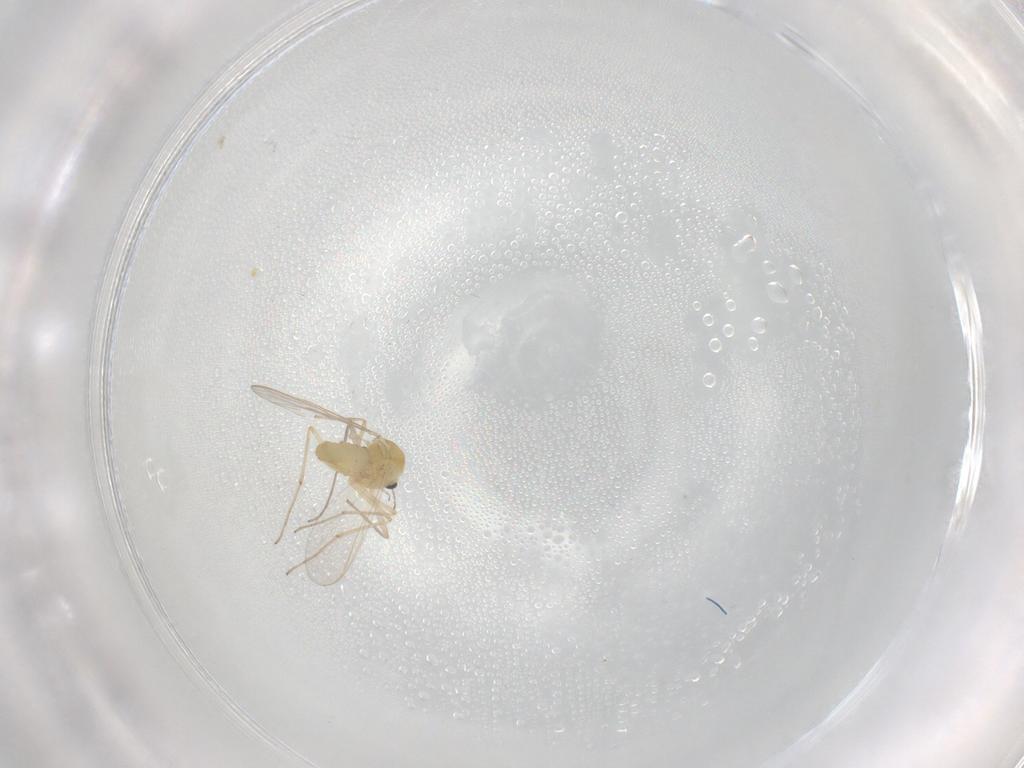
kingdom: Animalia
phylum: Arthropoda
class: Insecta
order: Diptera
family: Chironomidae
